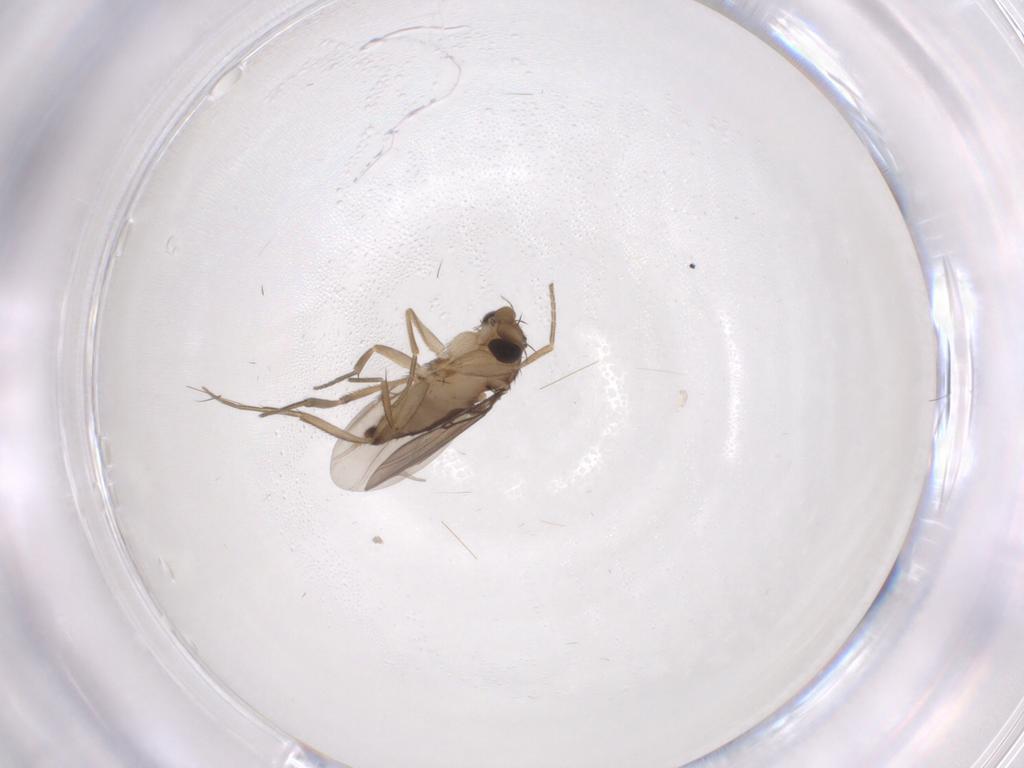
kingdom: Animalia
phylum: Arthropoda
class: Insecta
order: Diptera
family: Phoridae
